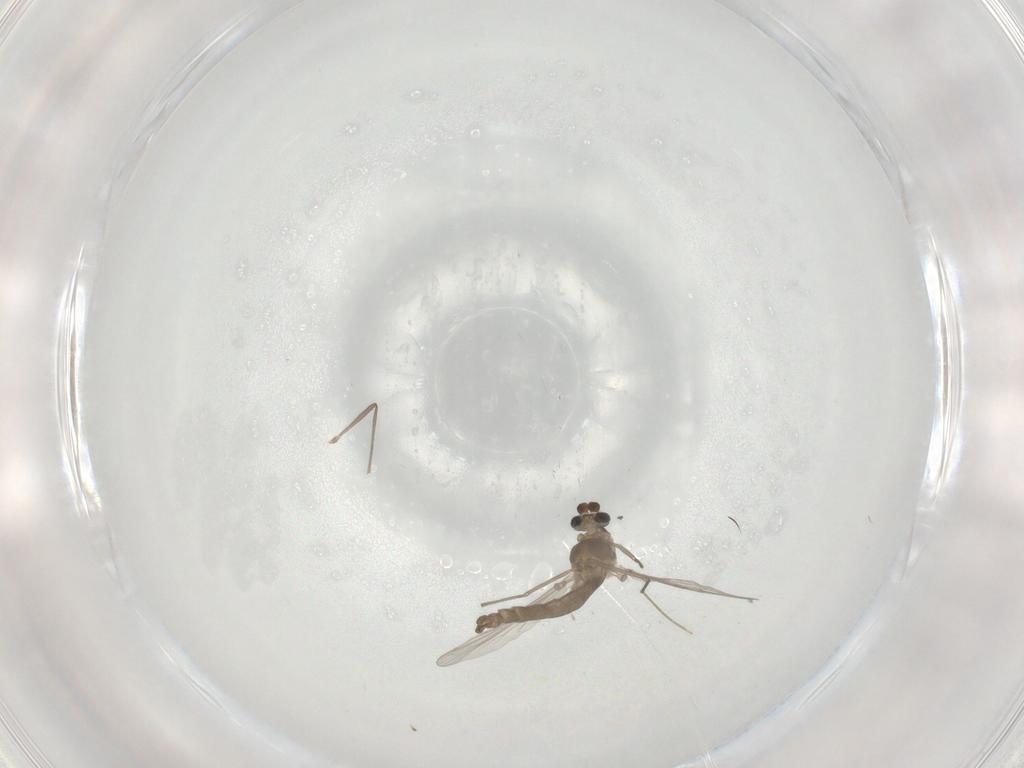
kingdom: Animalia
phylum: Arthropoda
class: Insecta
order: Diptera
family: Chironomidae
